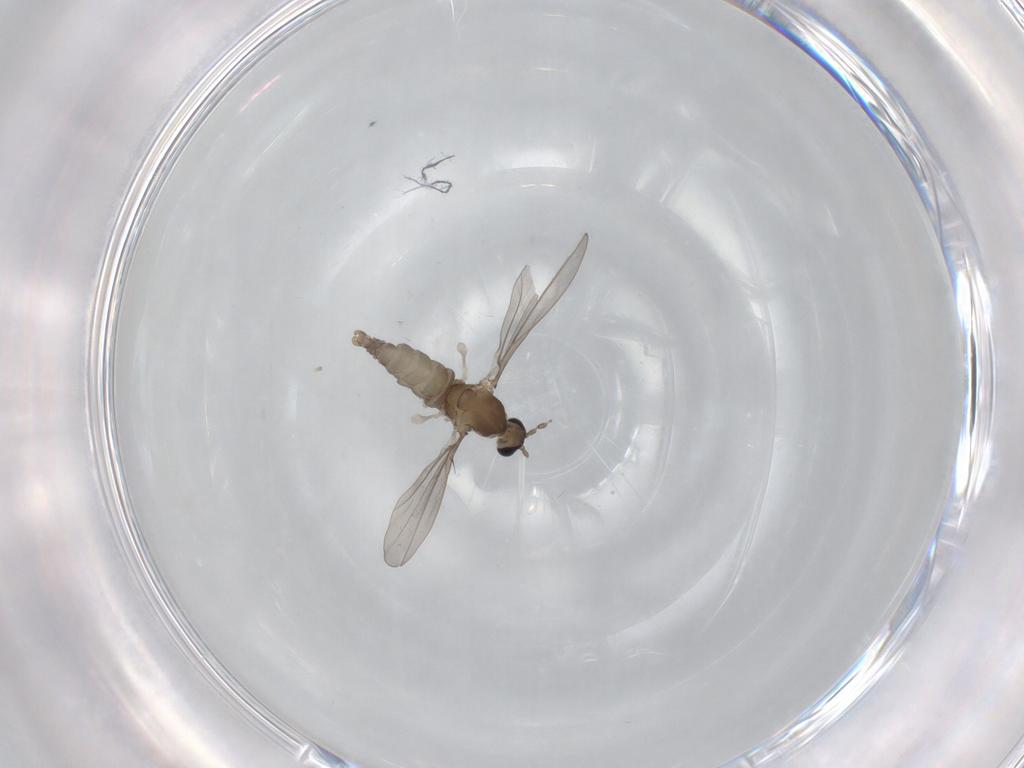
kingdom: Animalia
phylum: Arthropoda
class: Insecta
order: Diptera
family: Cecidomyiidae
